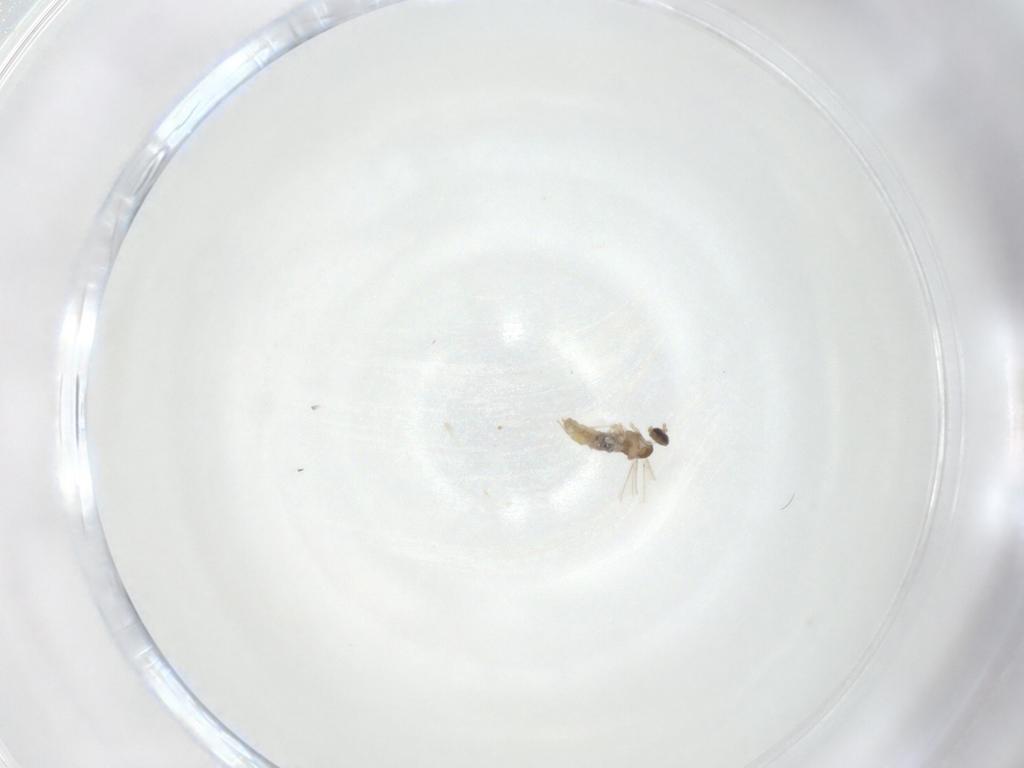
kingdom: Animalia
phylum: Arthropoda
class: Insecta
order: Diptera
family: Cecidomyiidae
